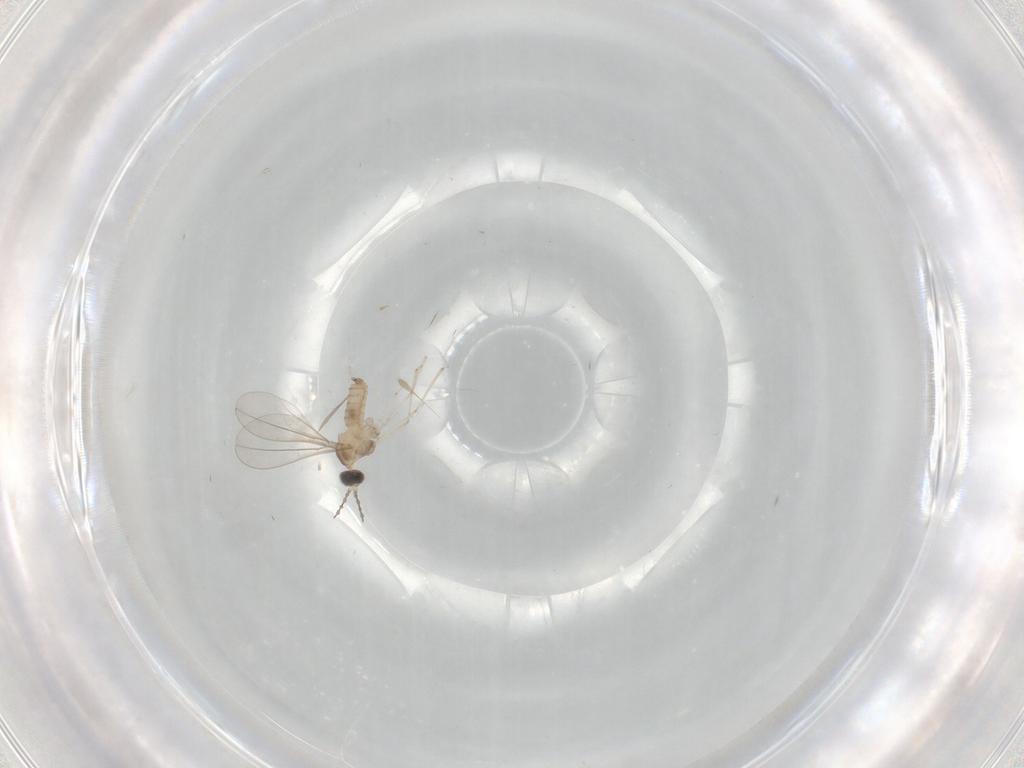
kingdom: Animalia
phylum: Arthropoda
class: Insecta
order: Diptera
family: Cecidomyiidae
